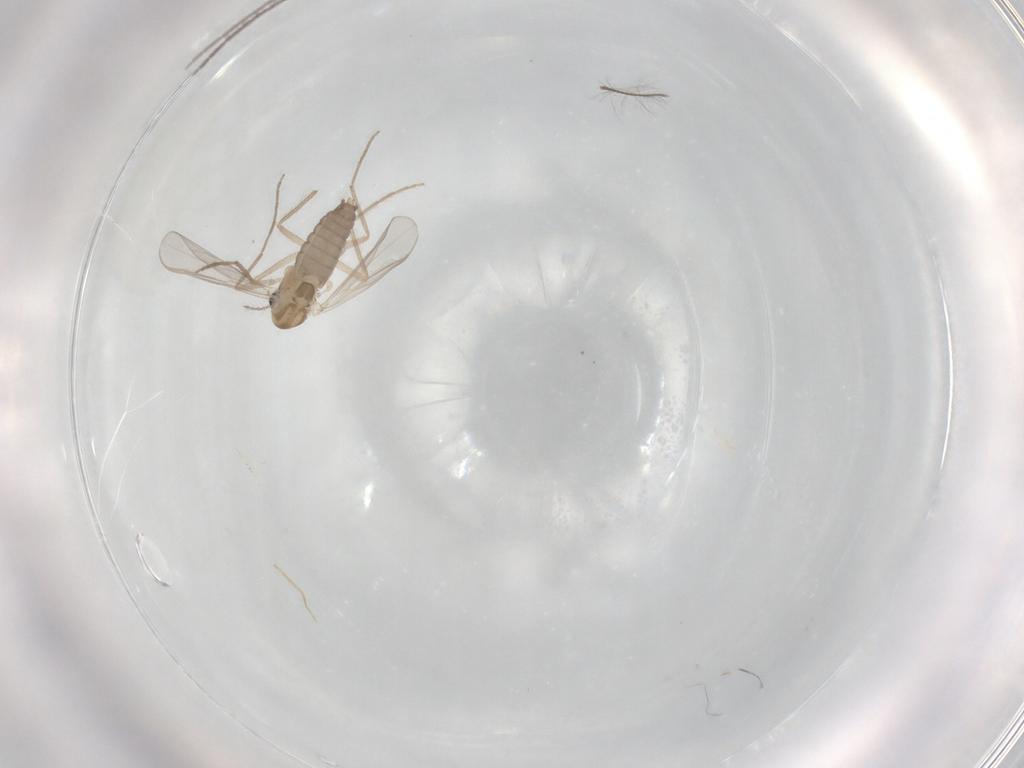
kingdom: Animalia
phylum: Arthropoda
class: Insecta
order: Diptera
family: Chironomidae
